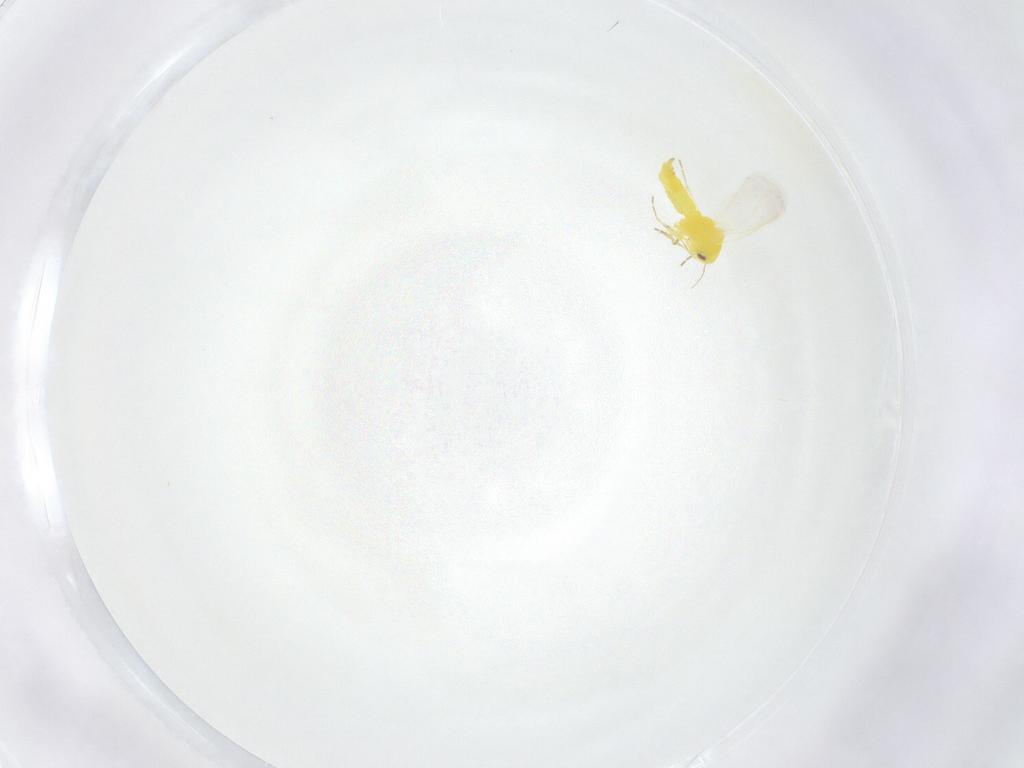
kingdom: Animalia
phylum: Arthropoda
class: Insecta
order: Hemiptera
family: Aleyrodidae
